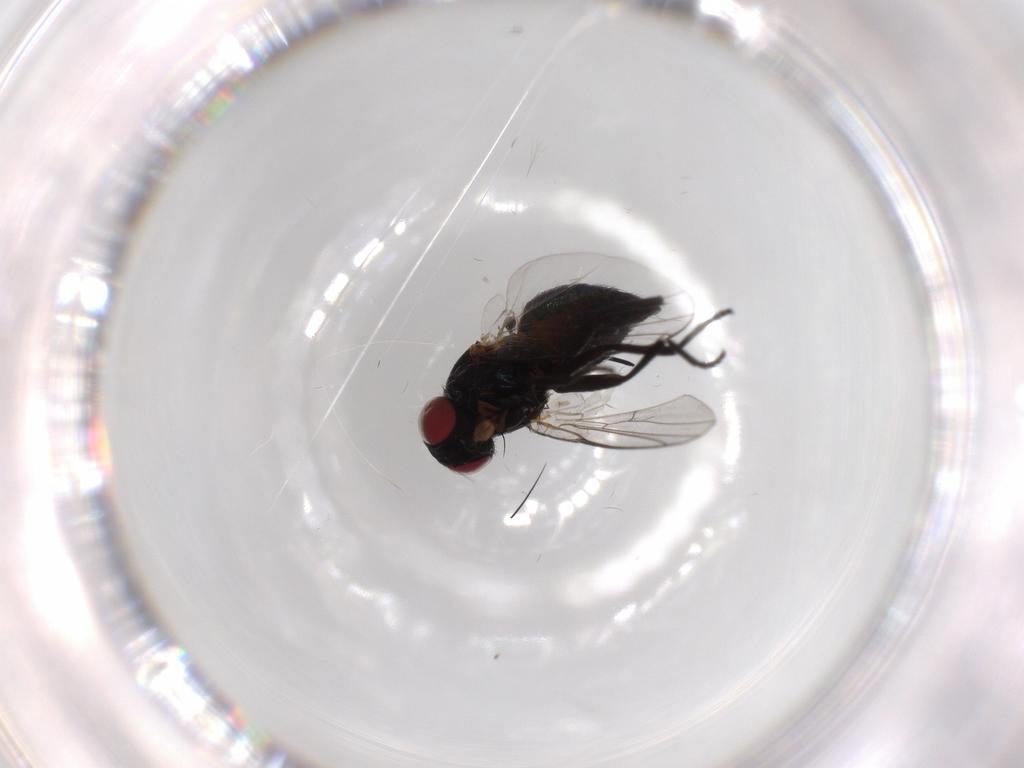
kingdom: Animalia
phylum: Arthropoda
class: Insecta
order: Diptera
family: Agromyzidae
